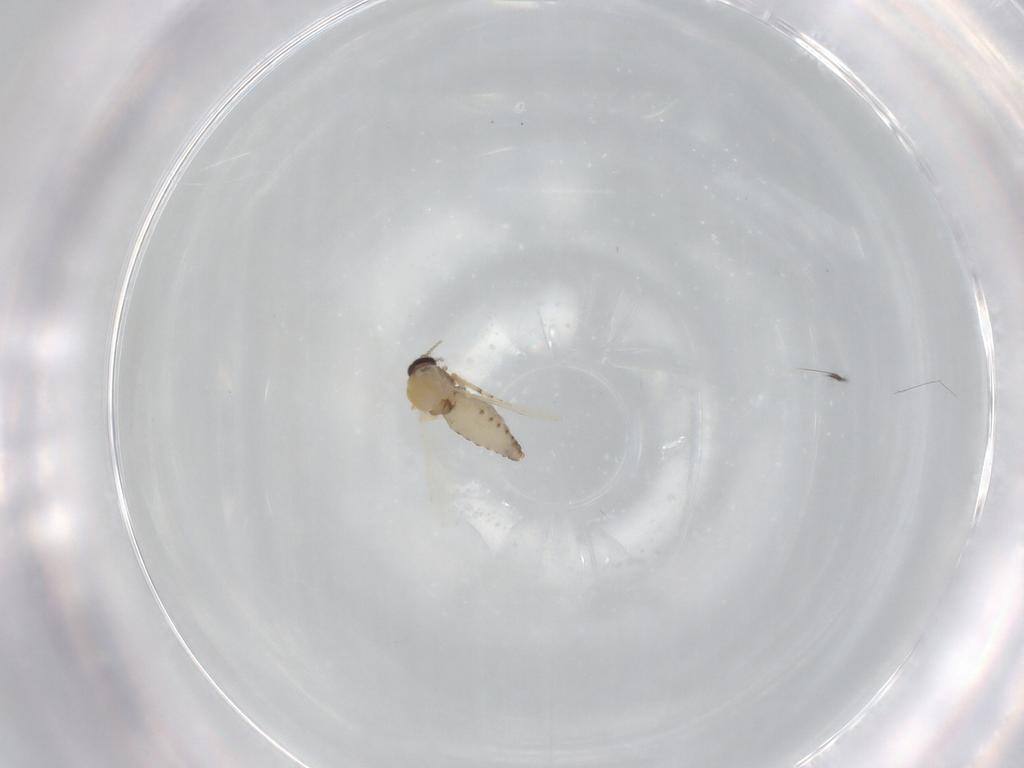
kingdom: Animalia
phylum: Arthropoda
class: Insecta
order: Diptera
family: Ceratopogonidae
